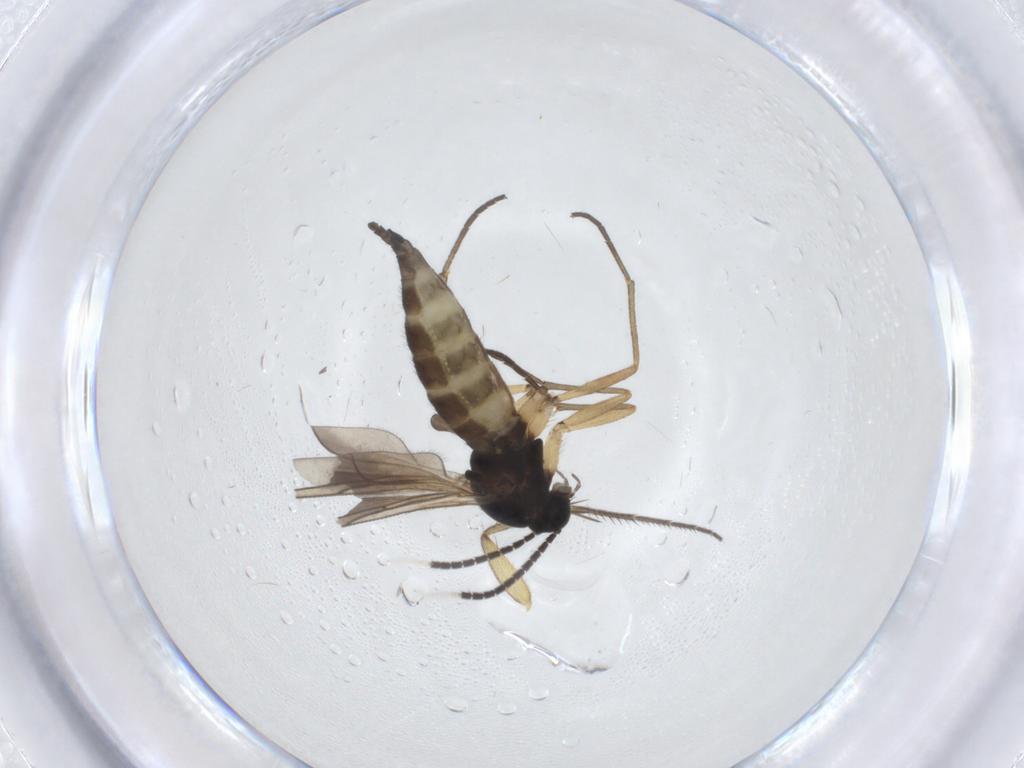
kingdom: Animalia
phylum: Arthropoda
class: Insecta
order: Diptera
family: Sciaridae
